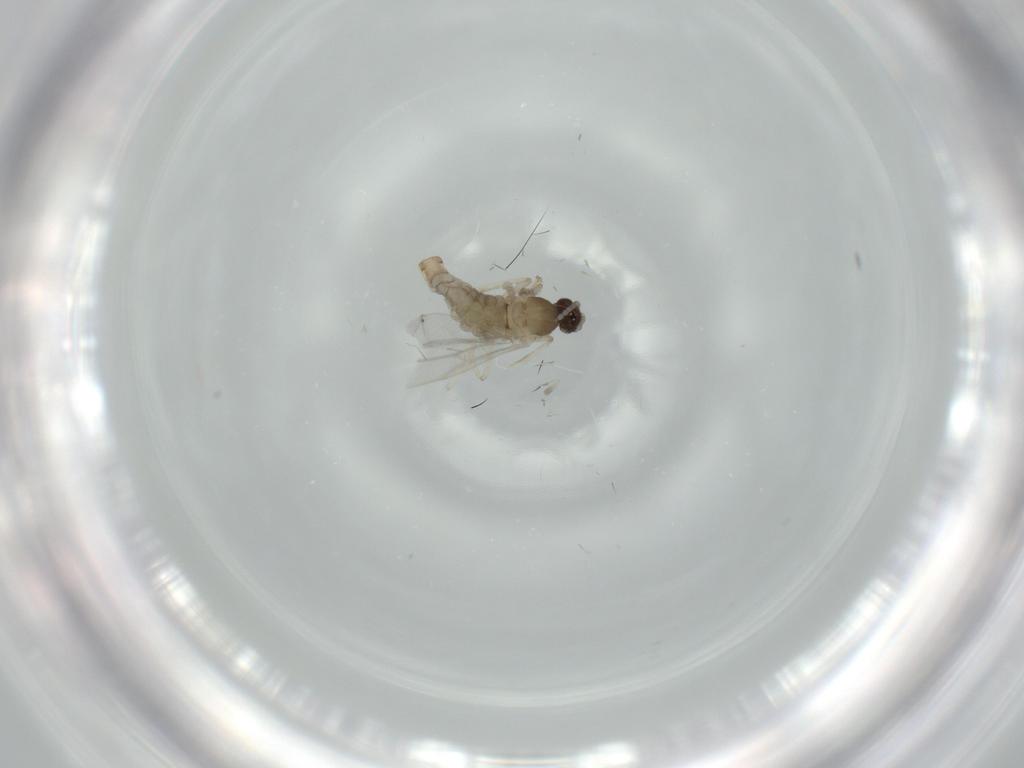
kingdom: Animalia
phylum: Arthropoda
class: Insecta
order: Diptera
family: Cecidomyiidae
